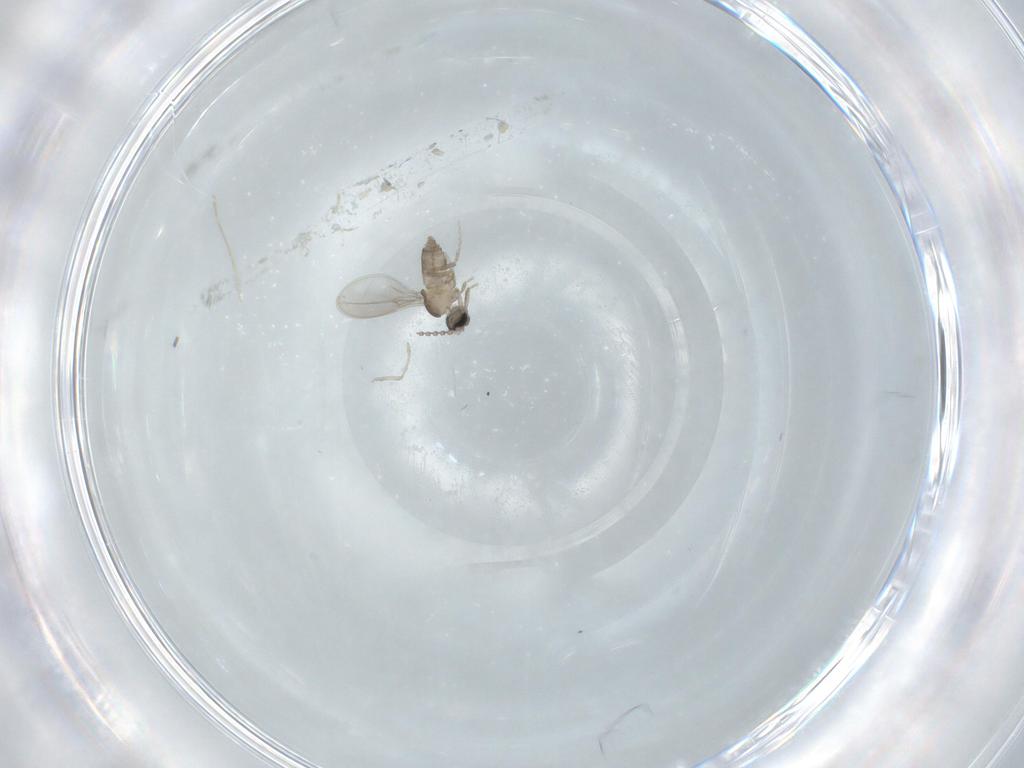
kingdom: Animalia
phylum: Arthropoda
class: Insecta
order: Diptera
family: Cecidomyiidae
